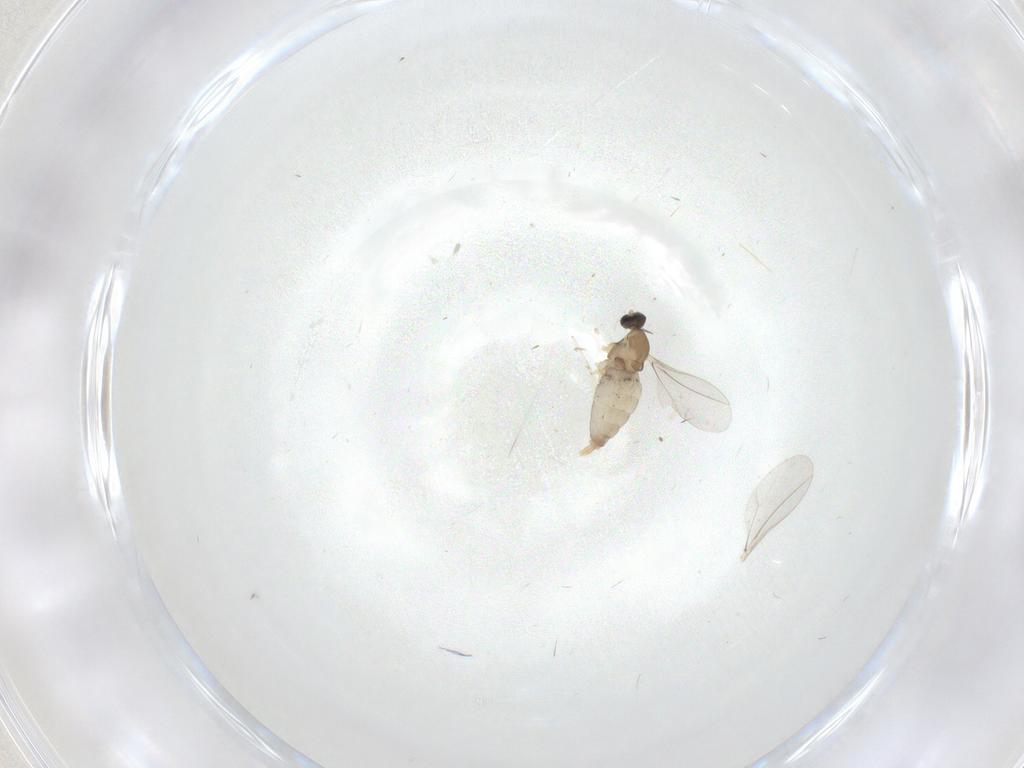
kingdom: Animalia
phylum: Arthropoda
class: Insecta
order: Diptera
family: Cecidomyiidae
